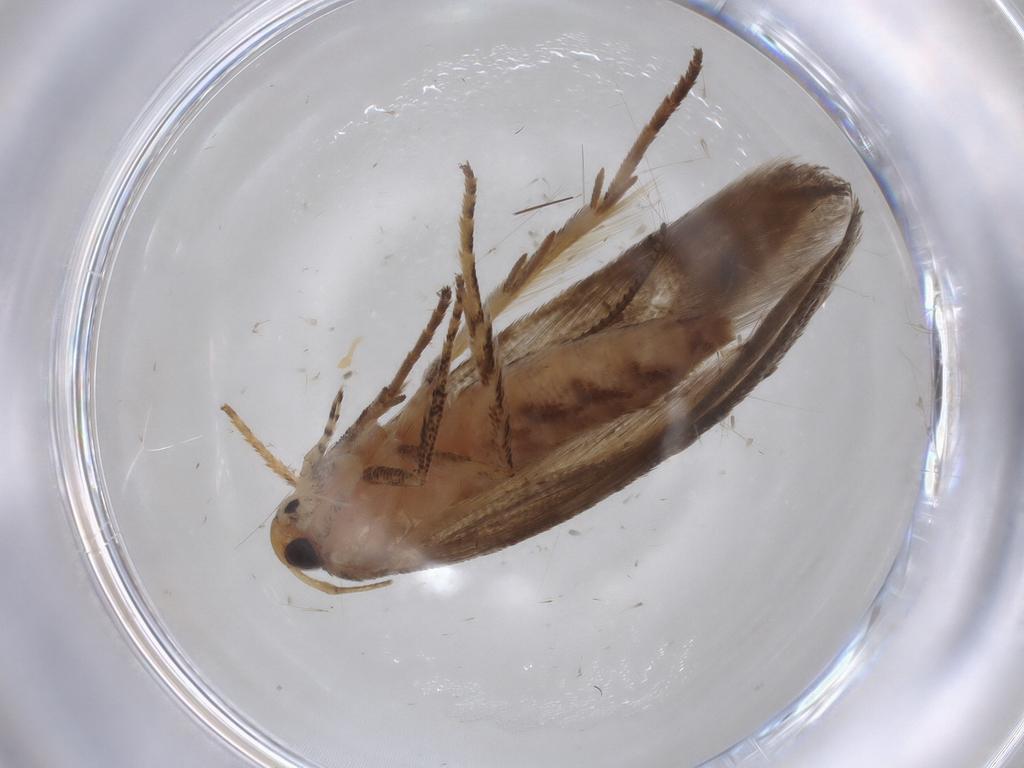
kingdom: Animalia
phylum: Arthropoda
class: Insecta
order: Lepidoptera
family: Cosmopterigidae
